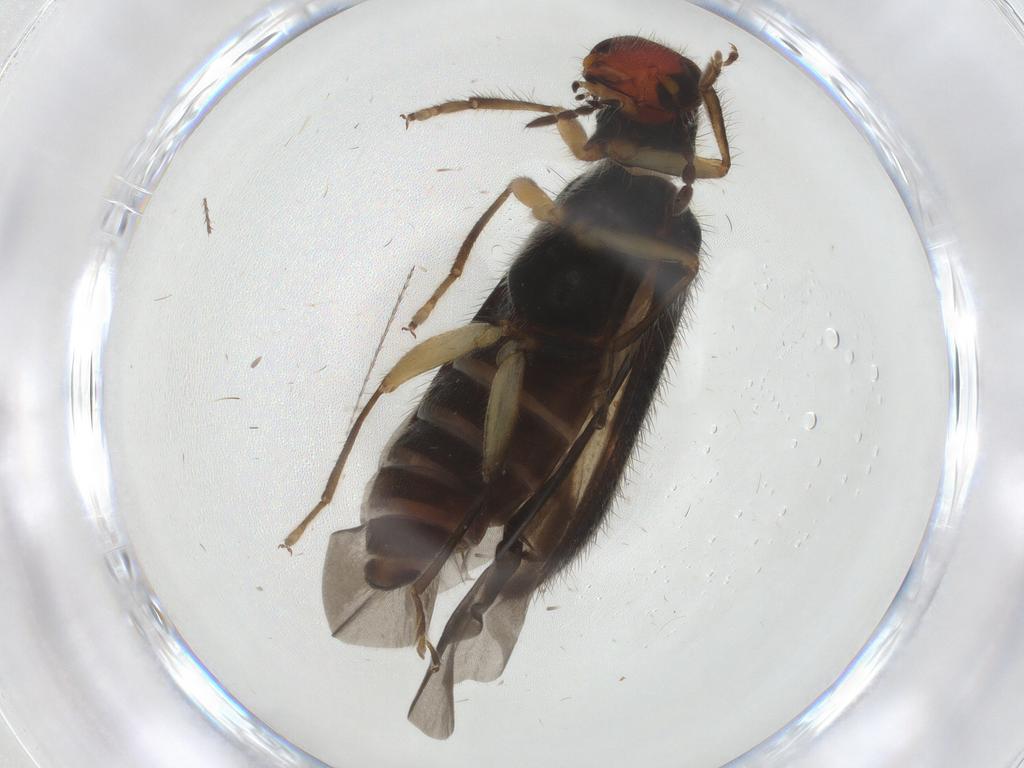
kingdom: Animalia
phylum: Arthropoda
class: Insecta
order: Coleoptera
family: Cleridae
